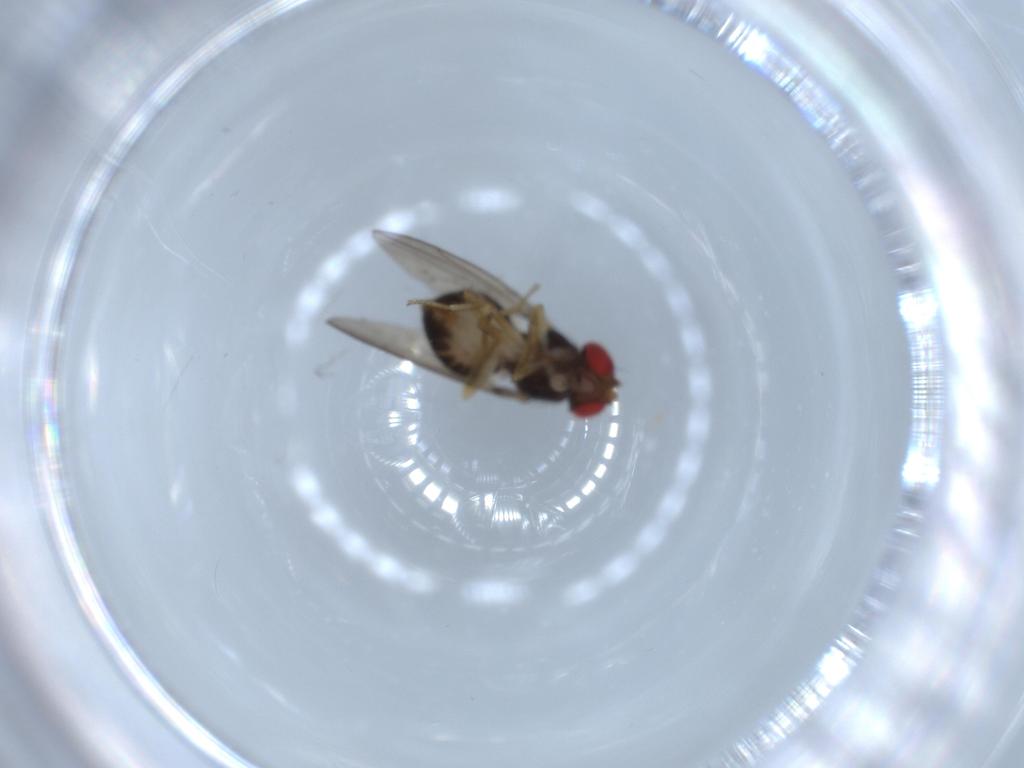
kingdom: Animalia
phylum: Arthropoda
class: Insecta
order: Diptera
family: Drosophilidae
